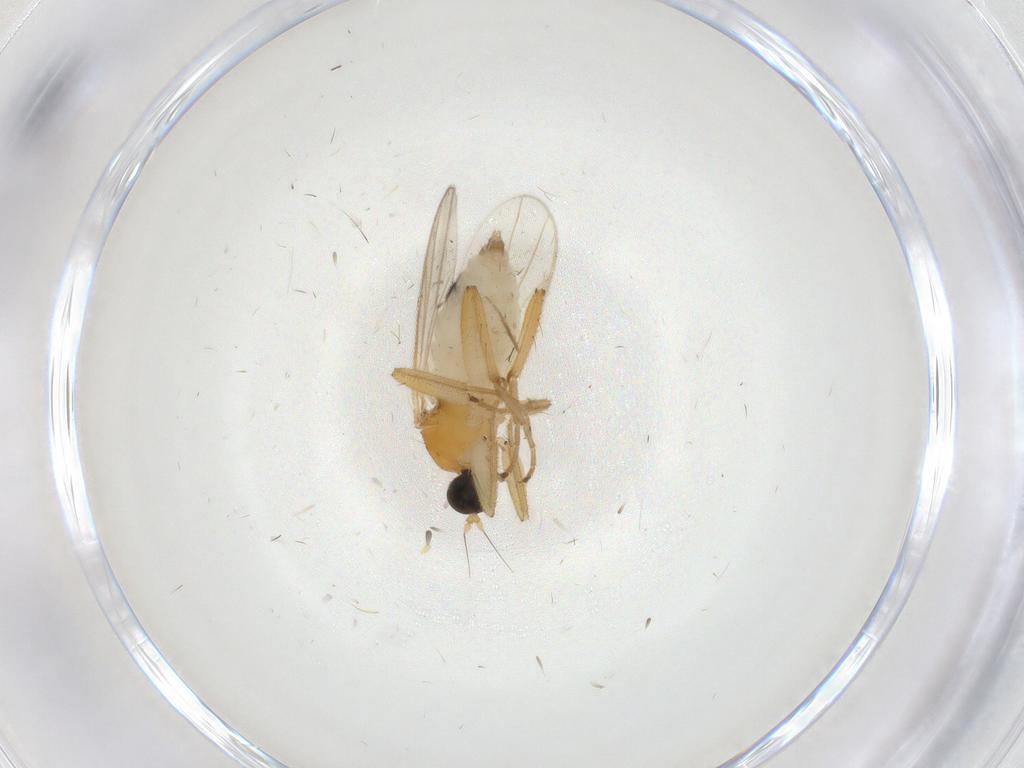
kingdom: Animalia
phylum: Arthropoda
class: Insecta
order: Diptera
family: Hybotidae
